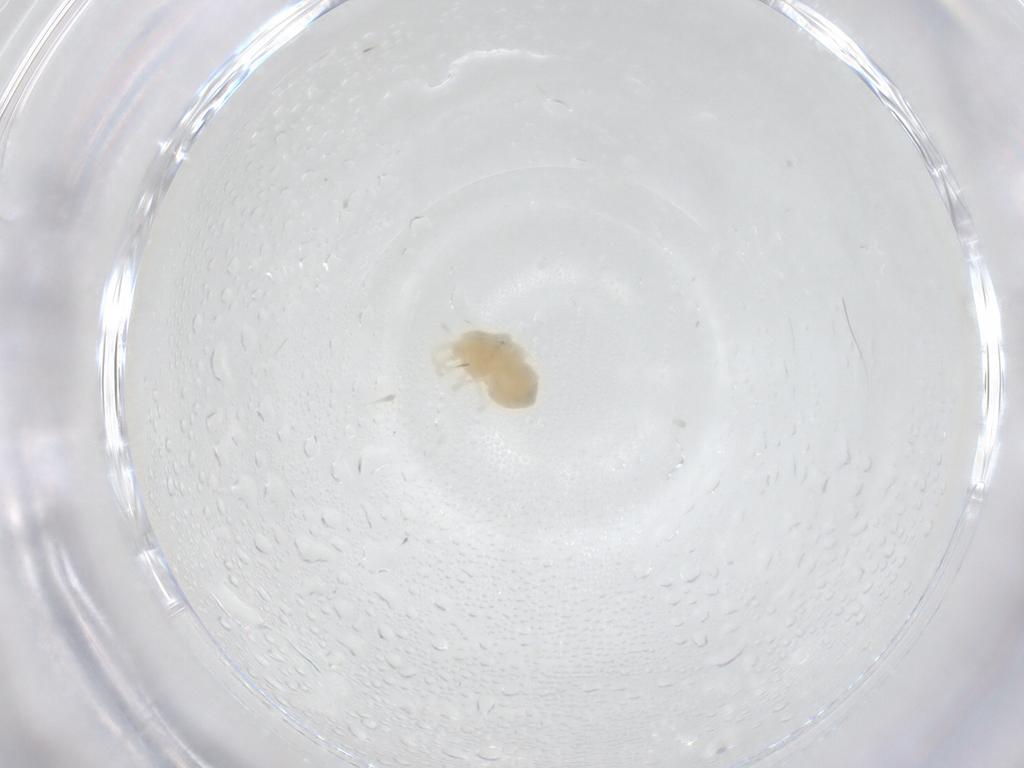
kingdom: Animalia
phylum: Arthropoda
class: Arachnida
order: Trombidiformes
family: Anystidae
